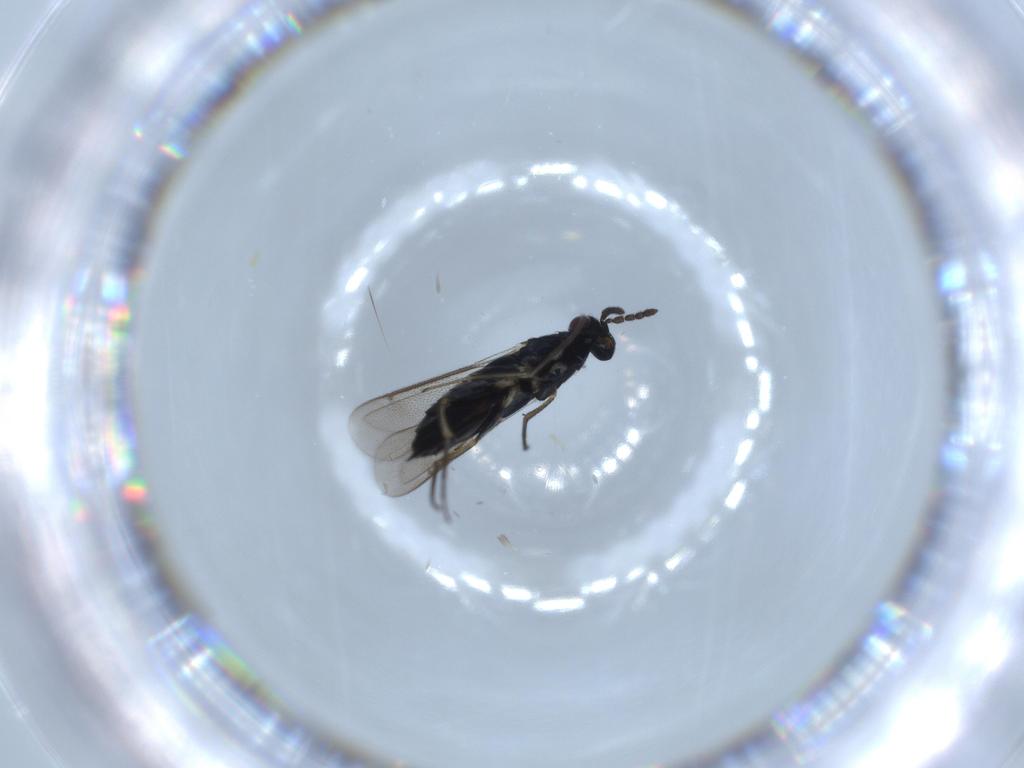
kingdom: Animalia
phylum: Arthropoda
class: Insecta
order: Hymenoptera
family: Eulophidae
